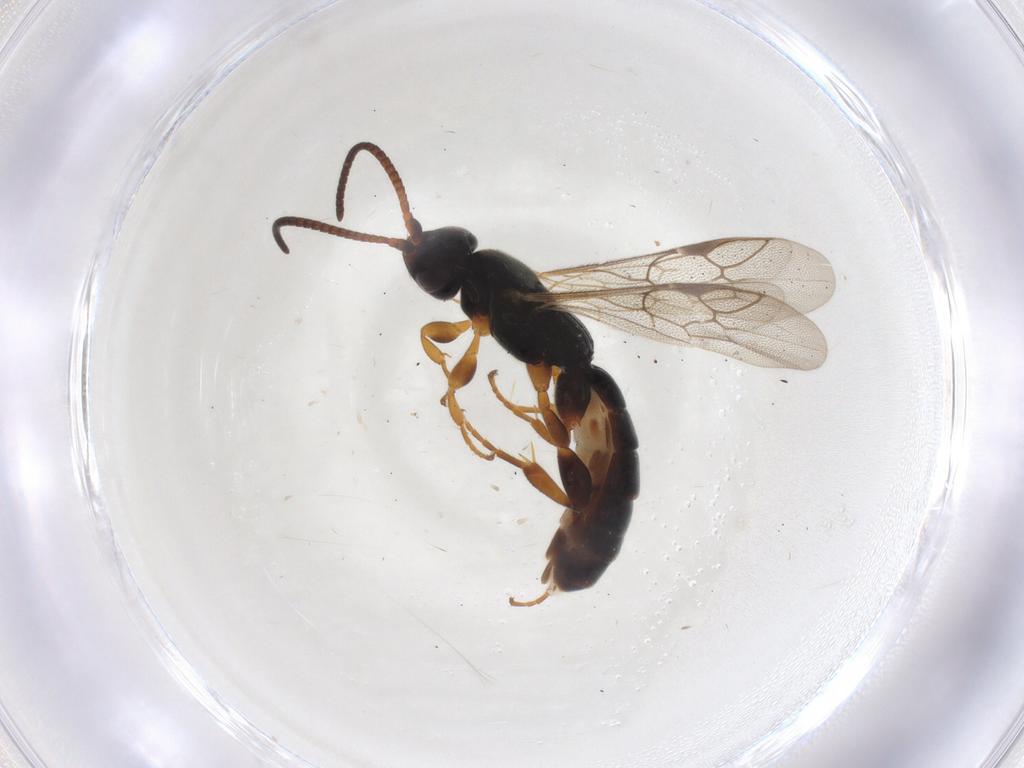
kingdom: Animalia
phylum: Arthropoda
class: Insecta
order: Hymenoptera
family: Ichneumonidae
